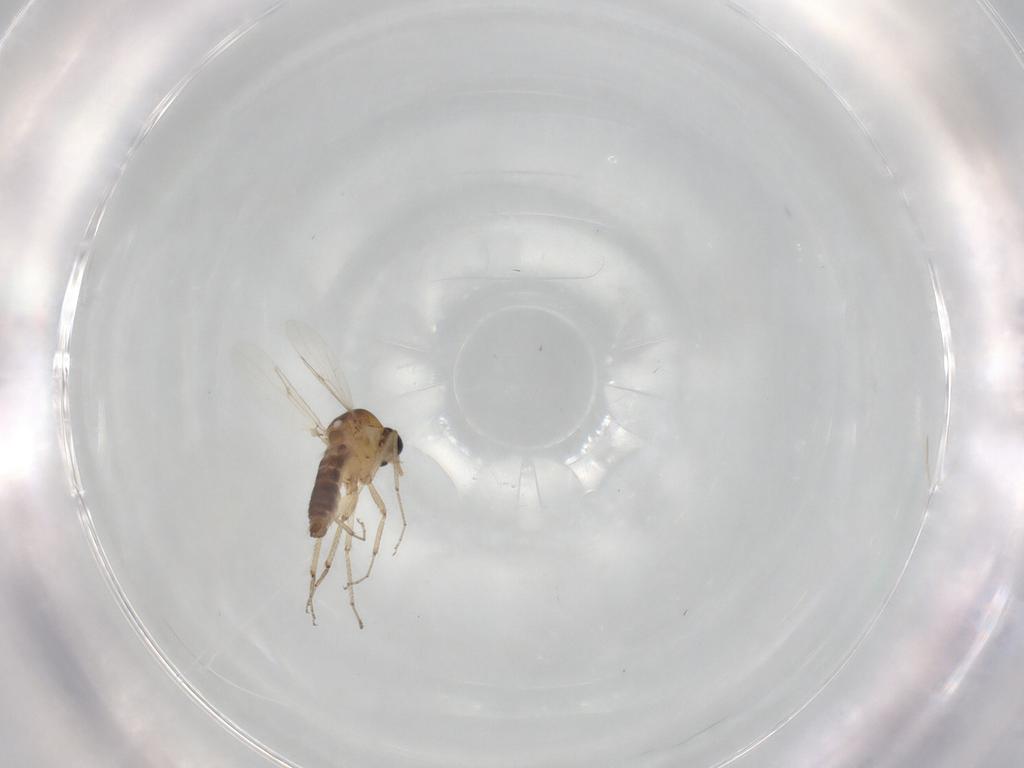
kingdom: Animalia
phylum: Arthropoda
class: Insecta
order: Diptera
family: Ceratopogonidae
